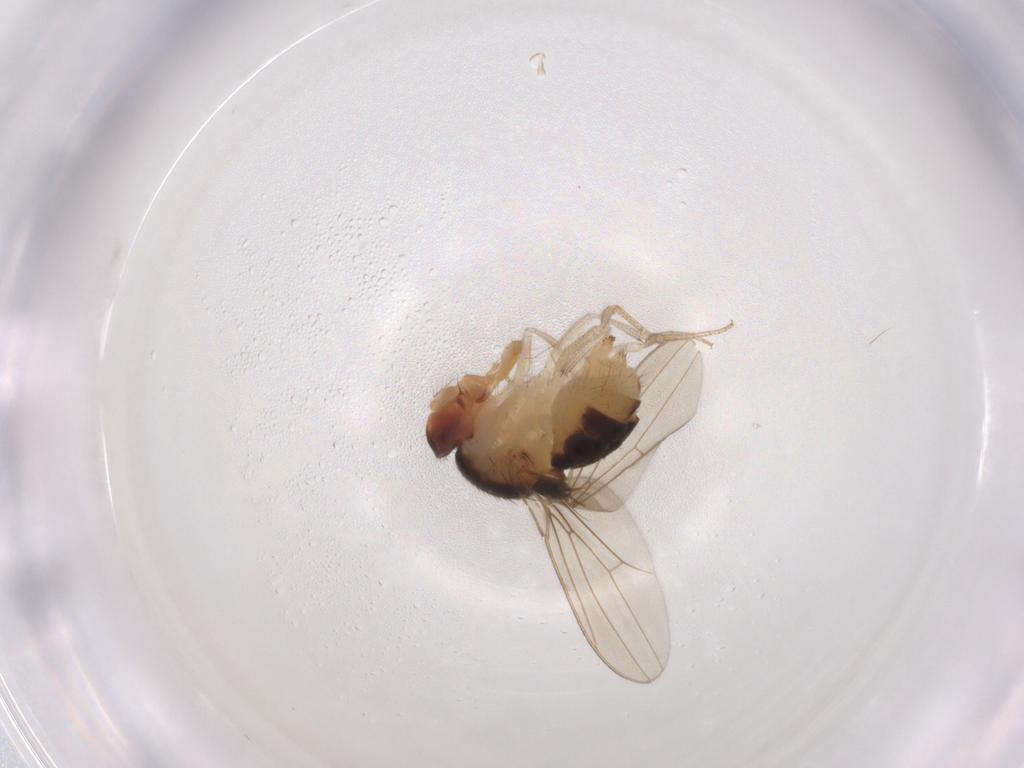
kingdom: Animalia
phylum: Arthropoda
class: Insecta
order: Diptera
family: Drosophilidae
